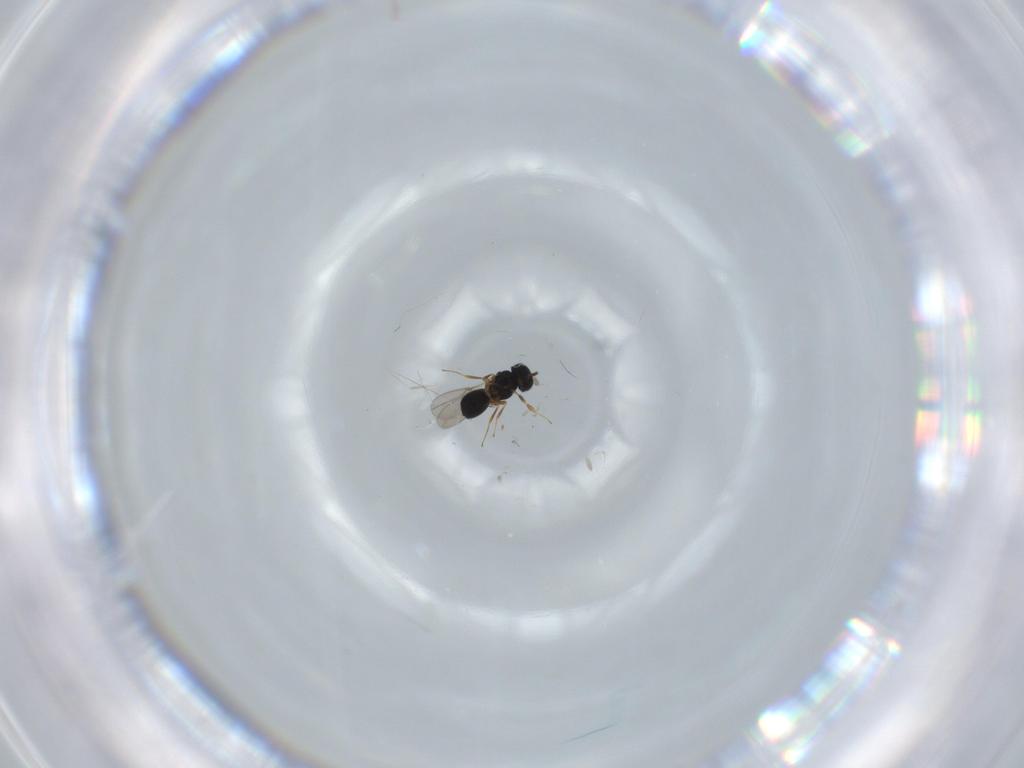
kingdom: Animalia
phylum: Arthropoda
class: Insecta
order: Hymenoptera
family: Scelionidae
